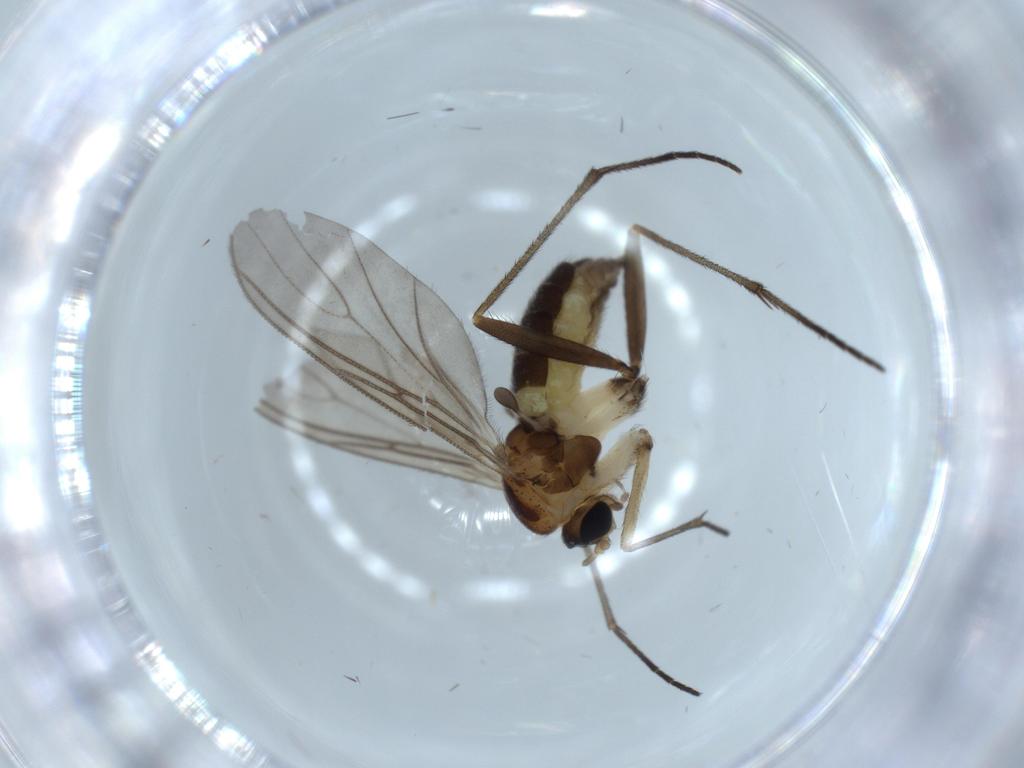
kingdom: Animalia
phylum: Arthropoda
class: Insecta
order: Diptera
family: Sciaridae
